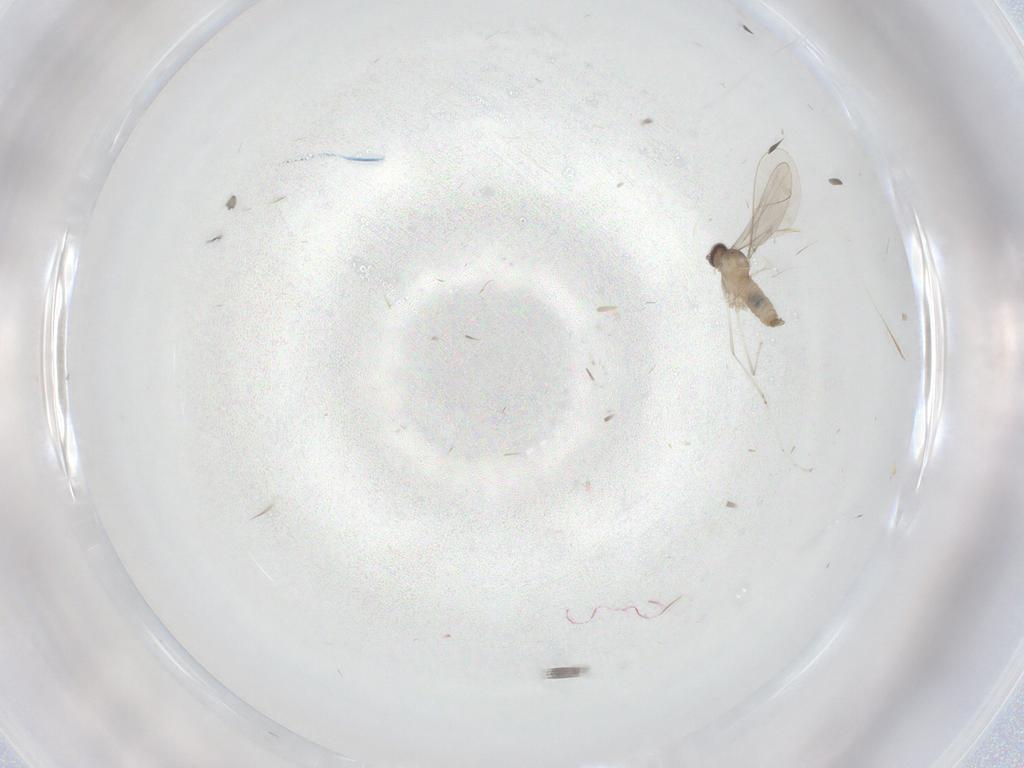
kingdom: Animalia
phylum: Arthropoda
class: Insecta
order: Diptera
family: Cecidomyiidae
